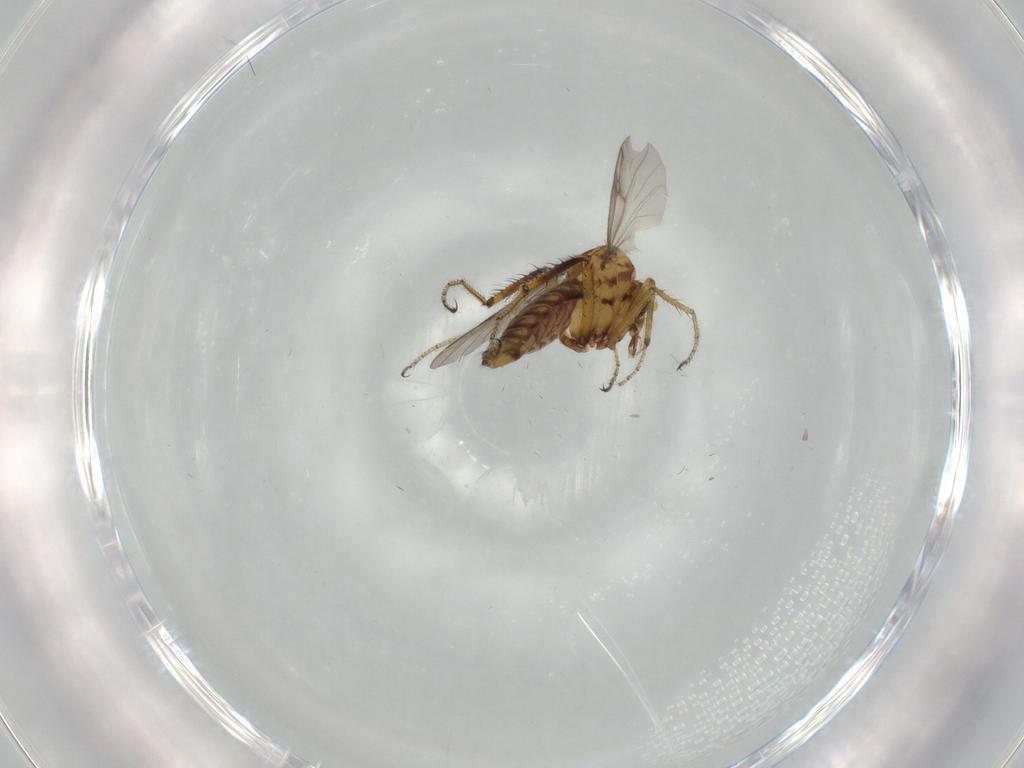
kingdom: Animalia
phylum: Arthropoda
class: Insecta
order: Diptera
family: Ceratopogonidae
